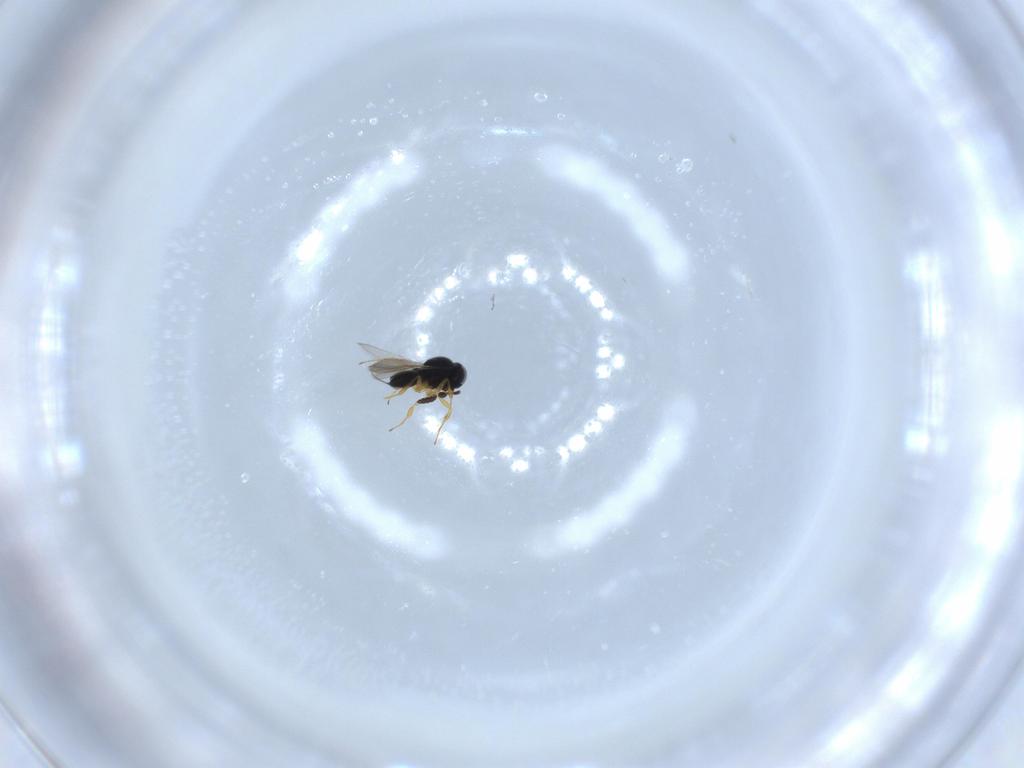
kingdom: Animalia
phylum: Arthropoda
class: Insecta
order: Hymenoptera
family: Scelionidae
